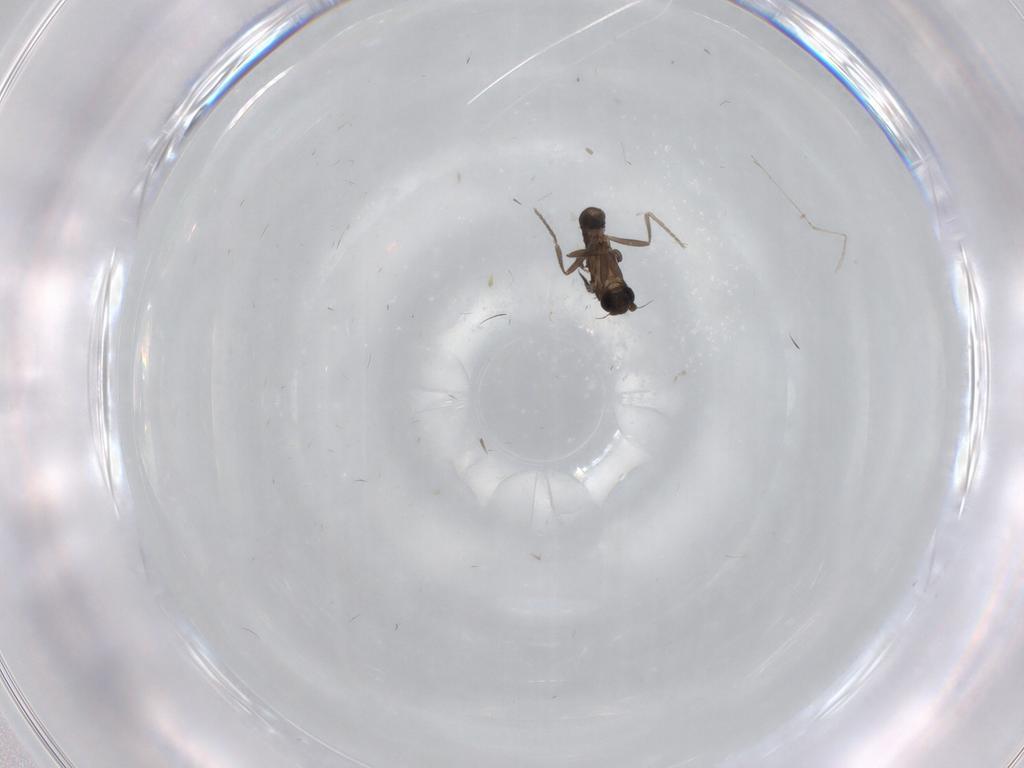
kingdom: Animalia
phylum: Arthropoda
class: Insecta
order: Diptera
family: Phoridae
